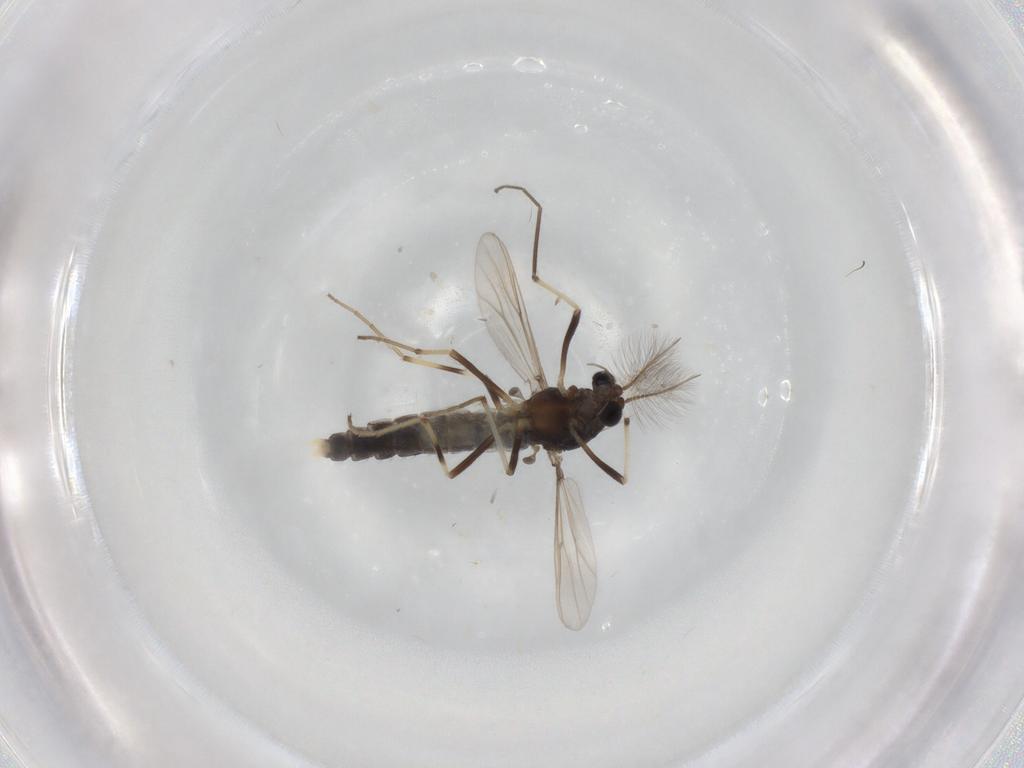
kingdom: Animalia
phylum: Arthropoda
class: Insecta
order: Diptera
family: Chironomidae
